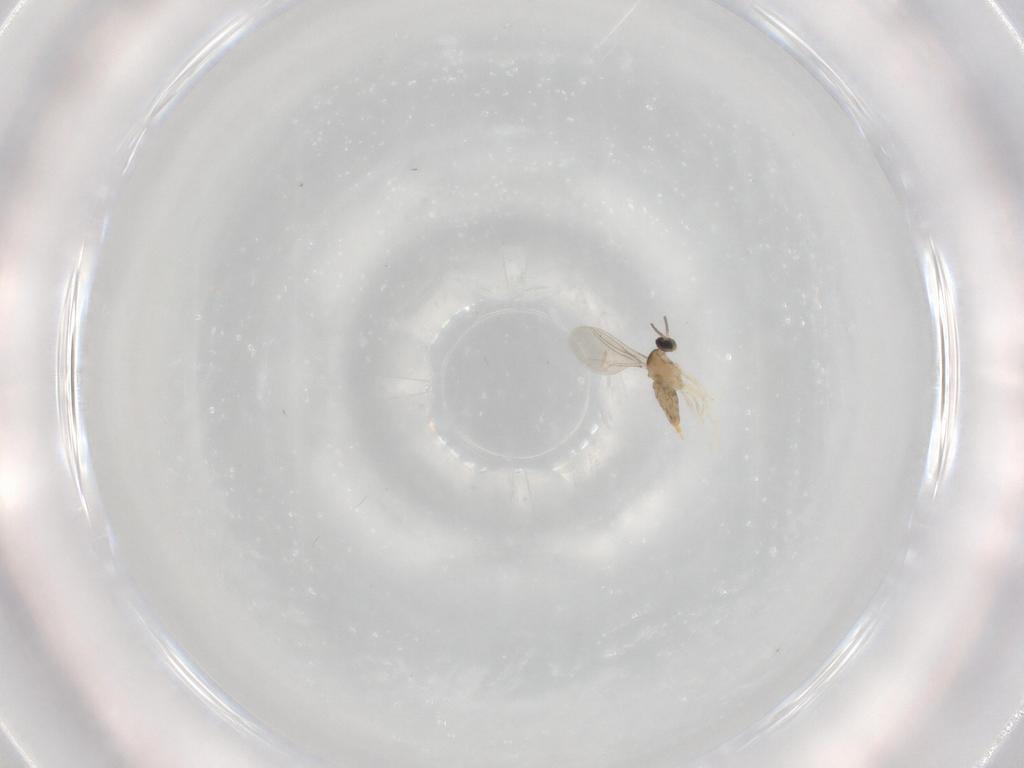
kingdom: Animalia
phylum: Arthropoda
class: Insecta
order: Diptera
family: Cecidomyiidae
